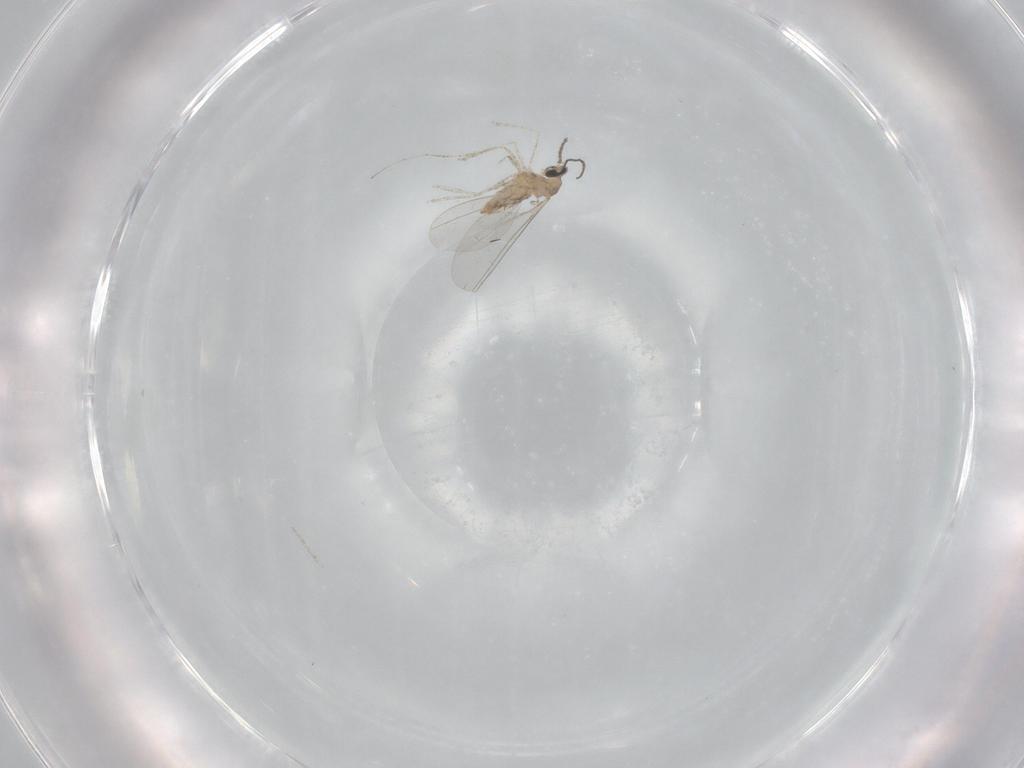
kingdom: Animalia
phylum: Arthropoda
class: Insecta
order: Diptera
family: Cecidomyiidae
